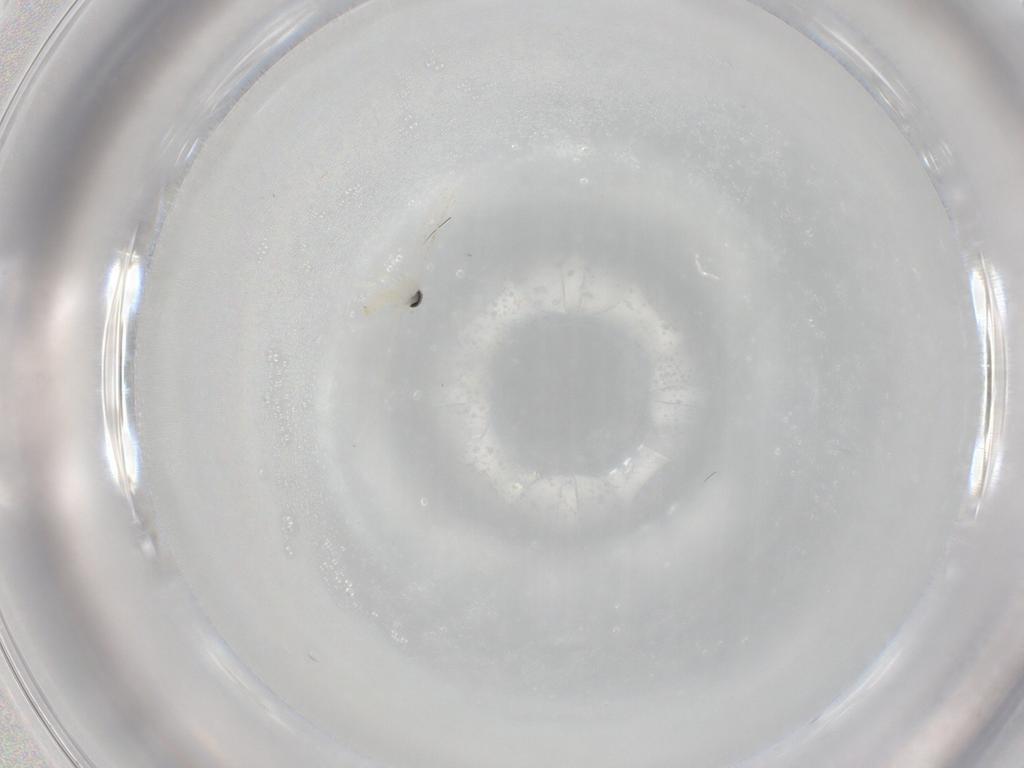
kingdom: Animalia
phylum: Arthropoda
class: Insecta
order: Diptera
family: Cecidomyiidae
